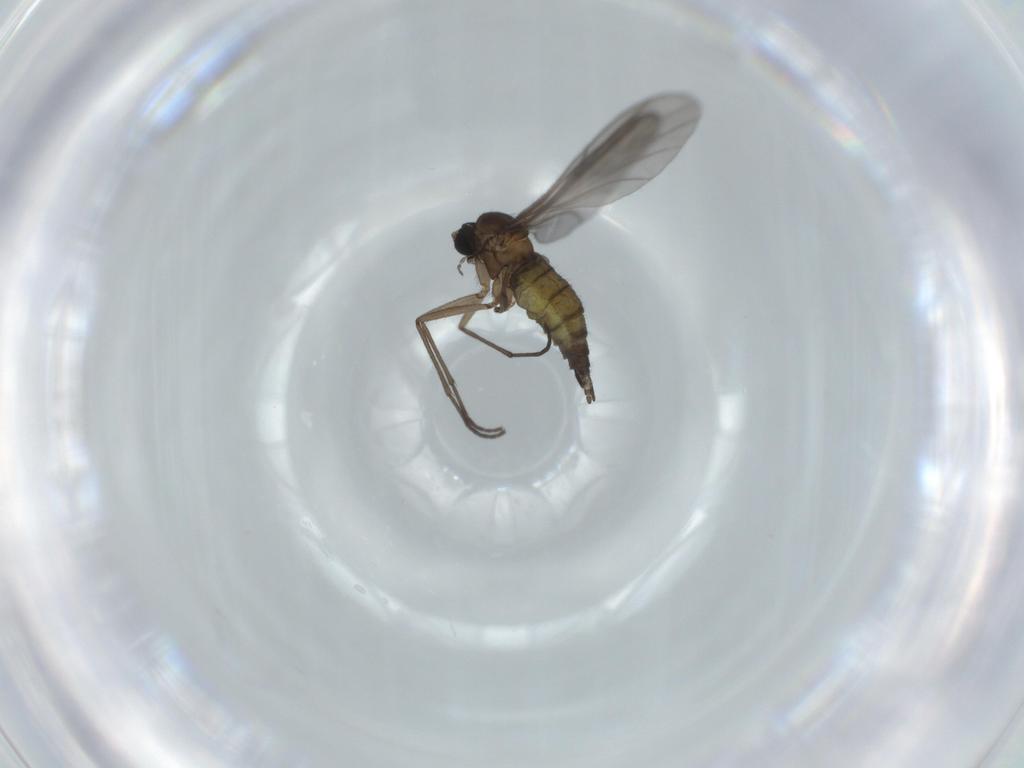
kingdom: Animalia
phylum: Arthropoda
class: Insecta
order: Diptera
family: Sciaridae
